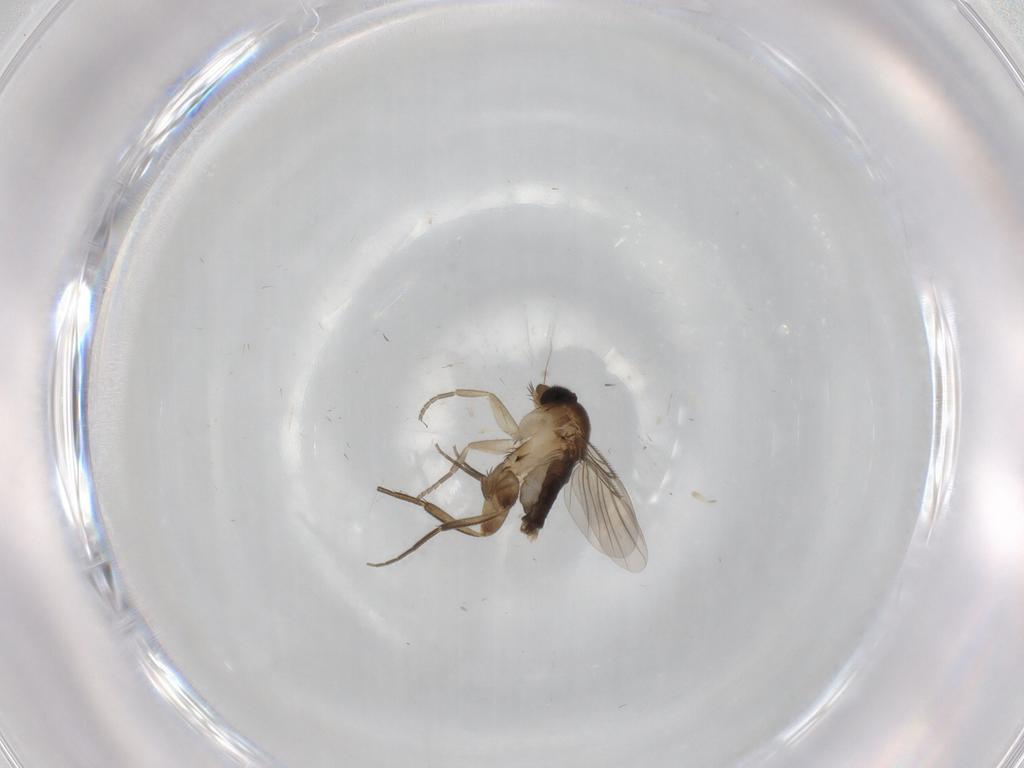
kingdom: Animalia
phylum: Arthropoda
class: Insecta
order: Diptera
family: Phoridae
